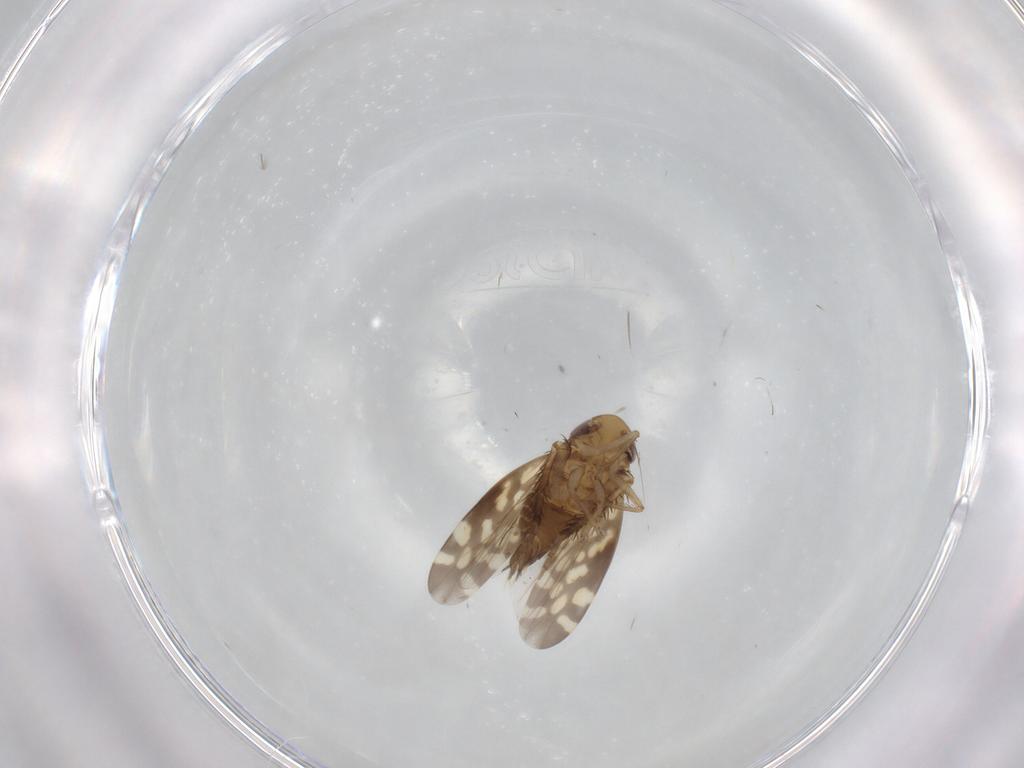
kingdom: Animalia
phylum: Arthropoda
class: Insecta
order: Hemiptera
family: Cicadellidae
